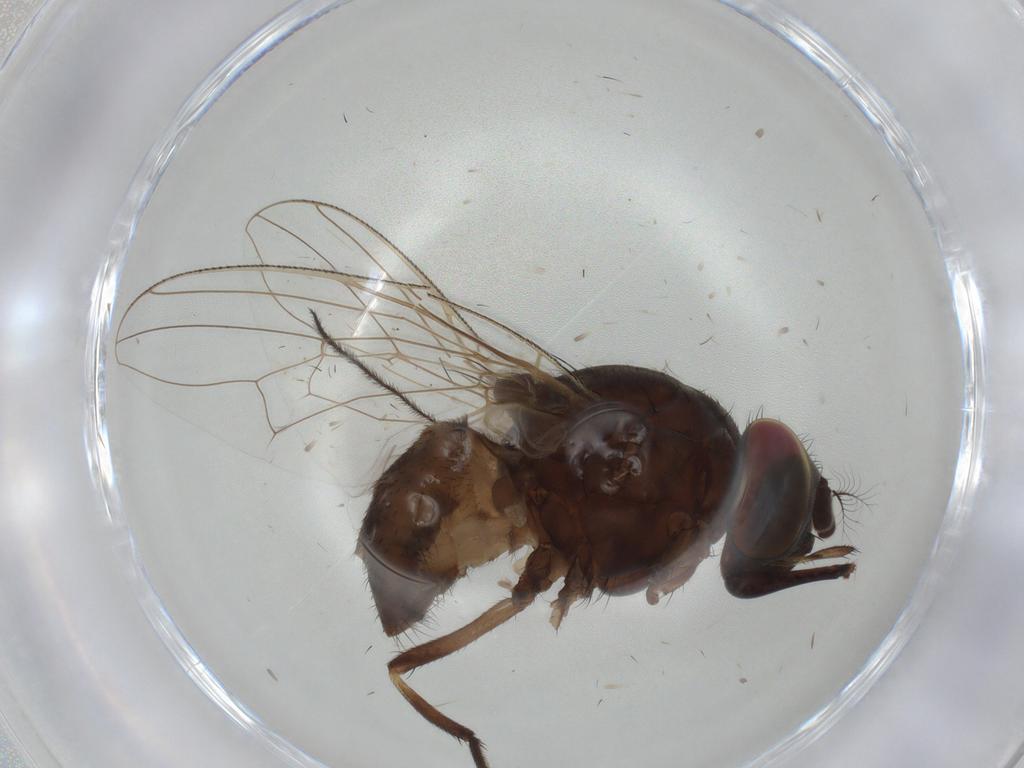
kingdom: Animalia
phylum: Arthropoda
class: Insecta
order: Diptera
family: Muscidae
